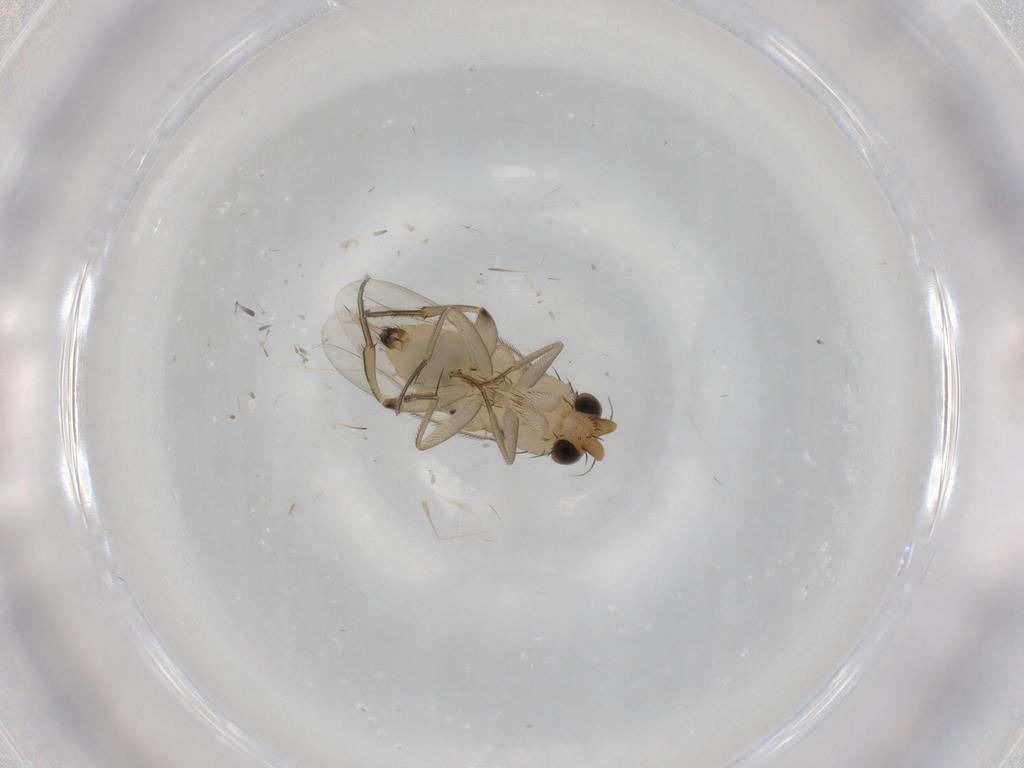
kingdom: Animalia
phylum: Arthropoda
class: Insecta
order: Diptera
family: Phoridae
